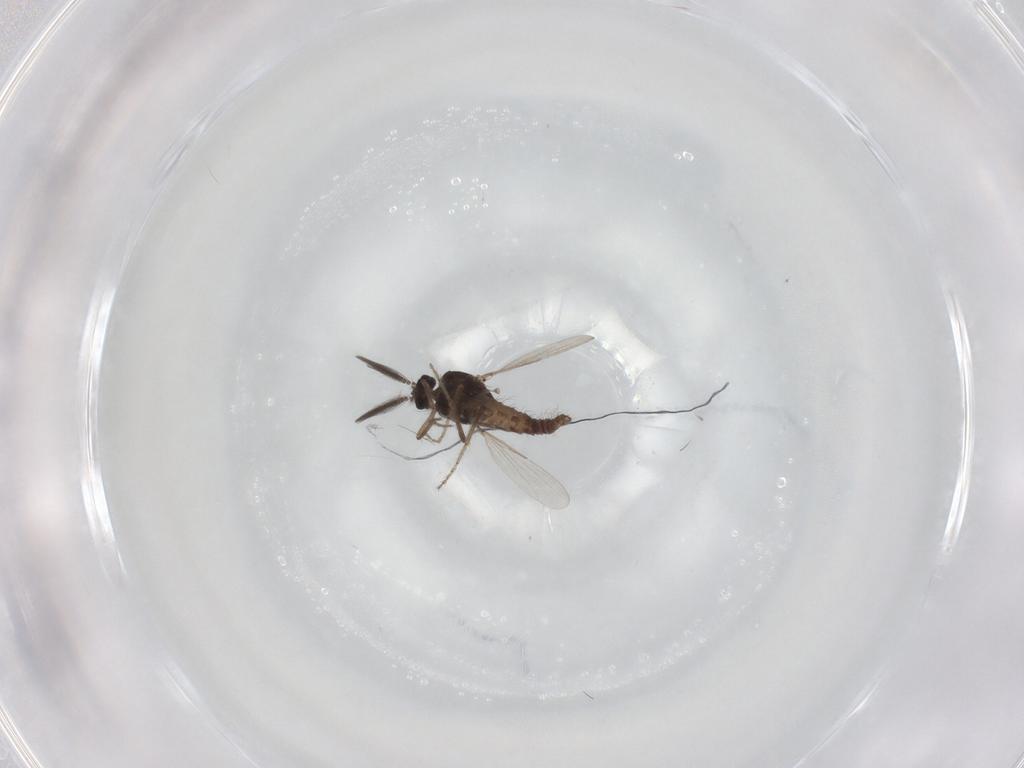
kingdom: Animalia
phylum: Arthropoda
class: Insecta
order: Diptera
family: Ceratopogonidae
